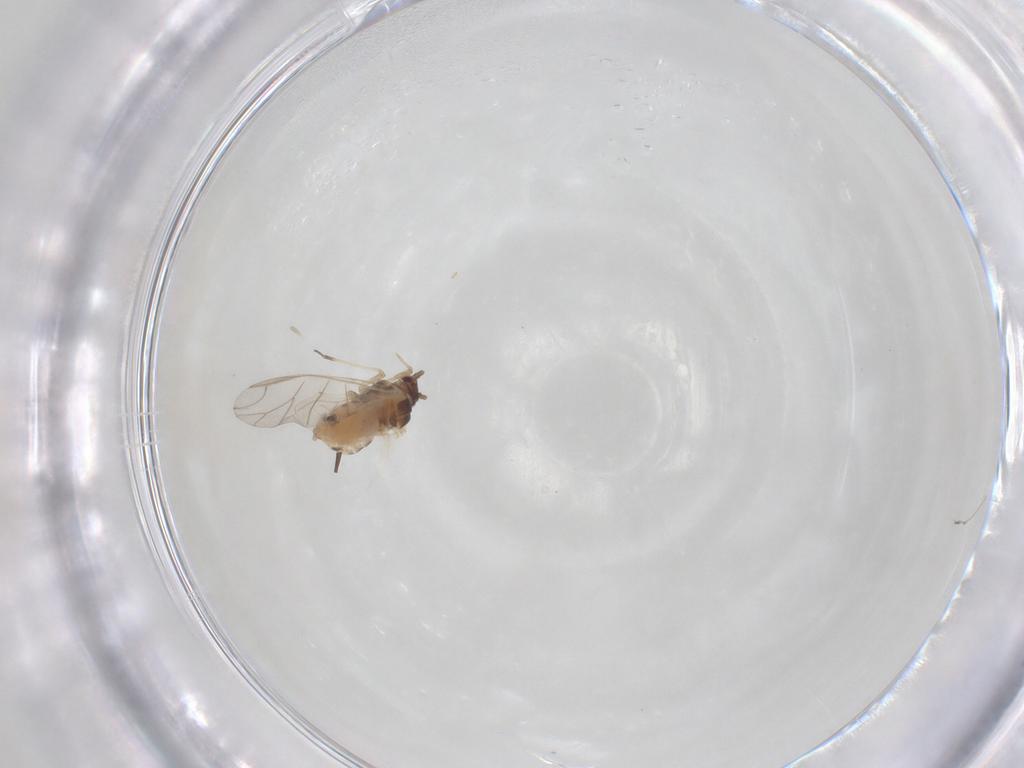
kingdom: Animalia
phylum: Arthropoda
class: Insecta
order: Hemiptera
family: Aphididae
